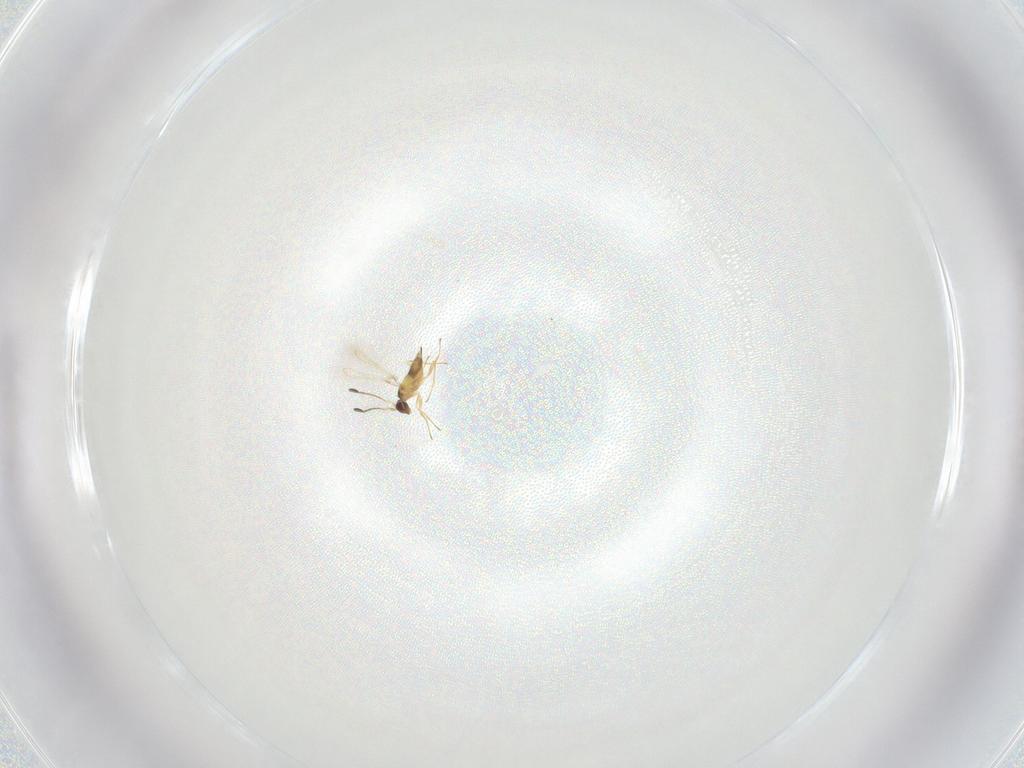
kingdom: Animalia
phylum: Arthropoda
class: Insecta
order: Hymenoptera
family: Mymaridae
